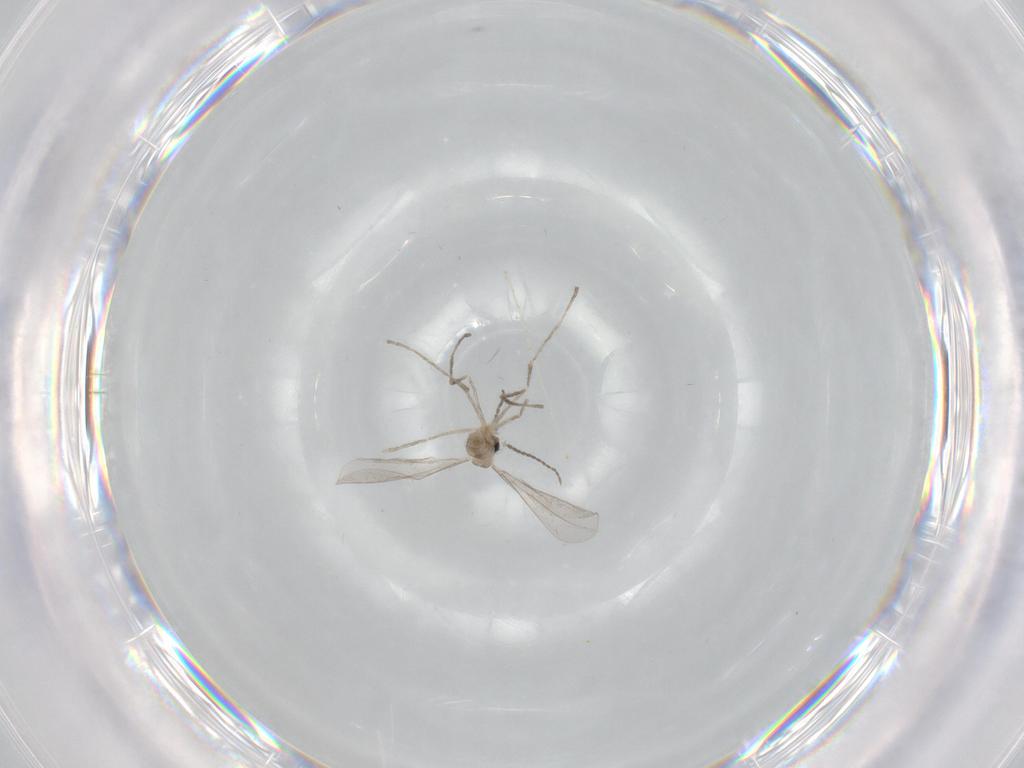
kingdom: Animalia
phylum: Arthropoda
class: Insecta
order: Diptera
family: Cecidomyiidae
